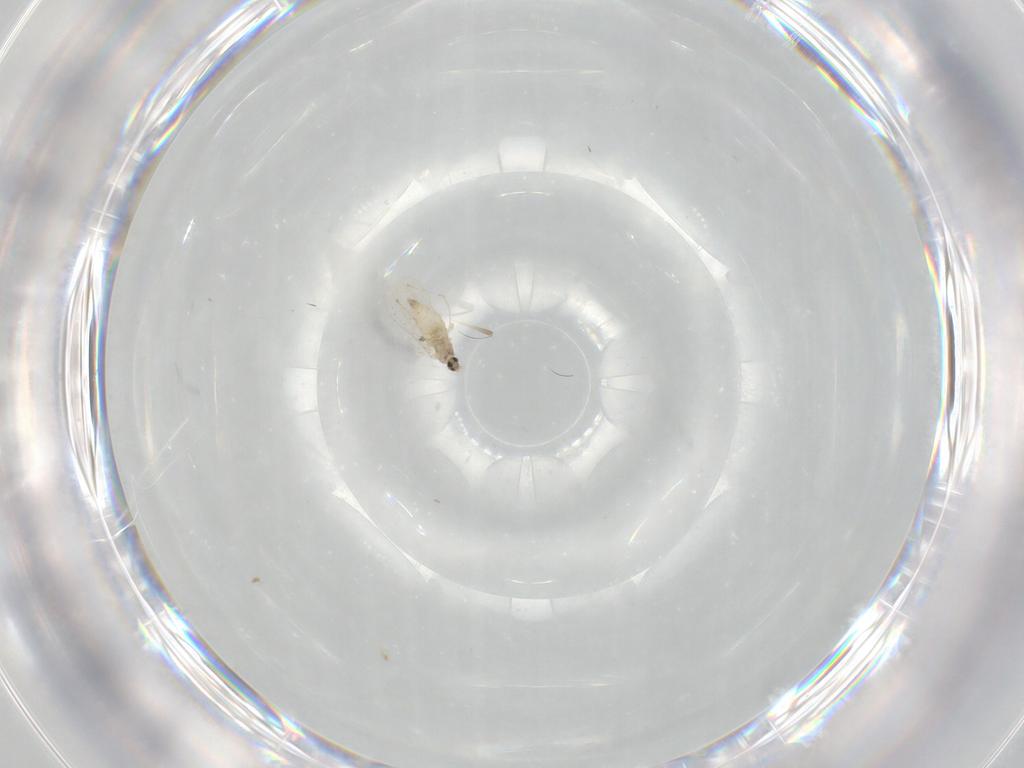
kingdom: Animalia
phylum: Arthropoda
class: Insecta
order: Diptera
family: Cecidomyiidae
